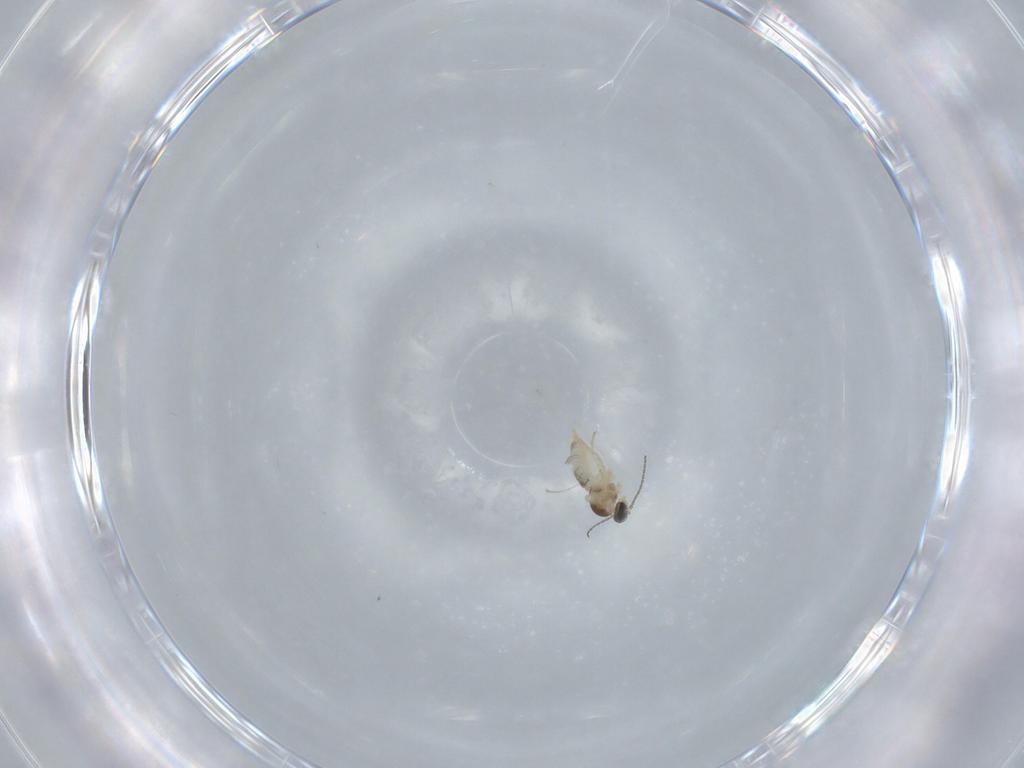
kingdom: Animalia
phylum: Arthropoda
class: Insecta
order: Diptera
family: Cecidomyiidae
